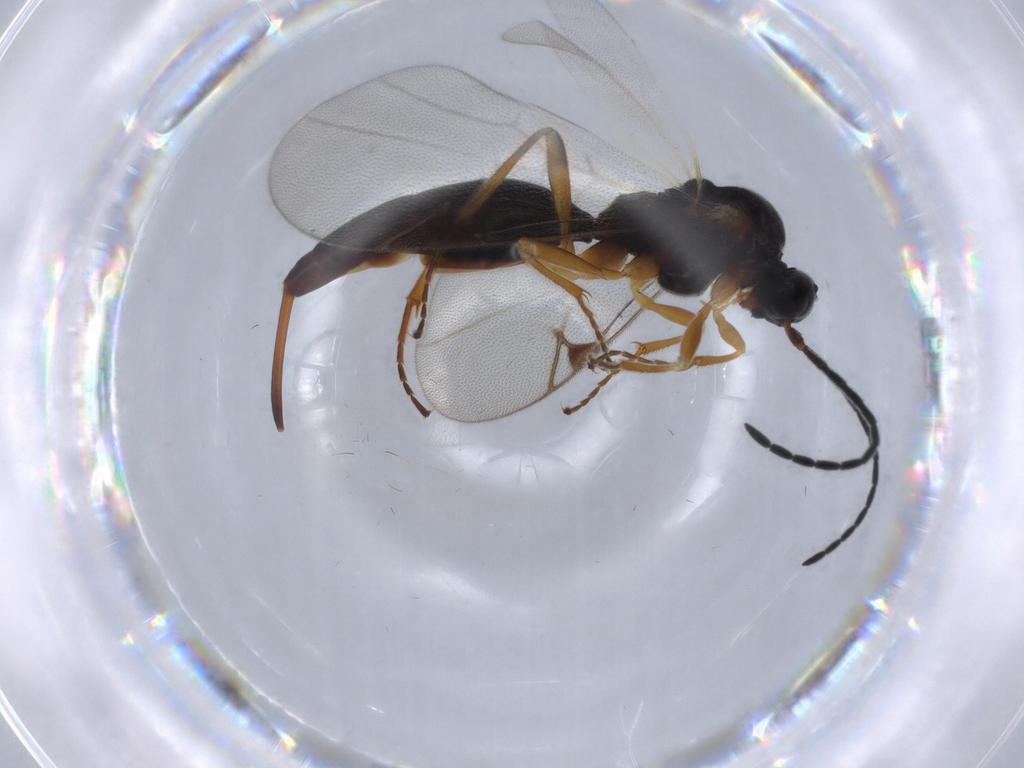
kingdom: Animalia
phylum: Arthropoda
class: Insecta
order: Hymenoptera
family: Proctotrupidae
